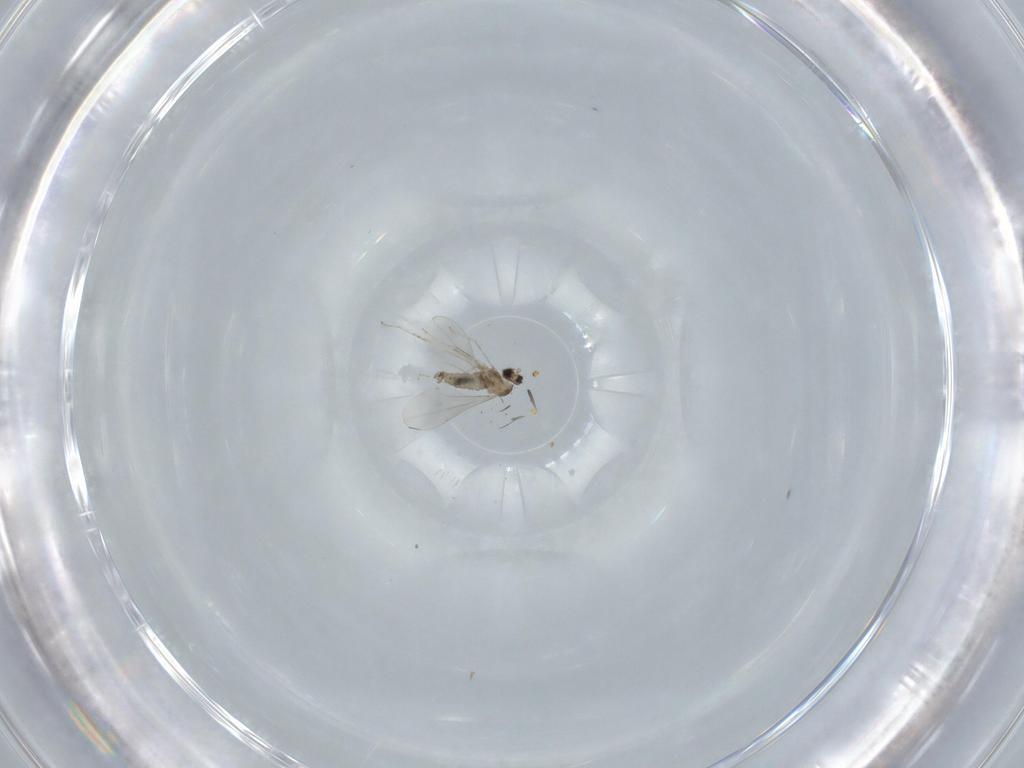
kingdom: Animalia
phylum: Arthropoda
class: Insecta
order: Diptera
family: Cecidomyiidae
